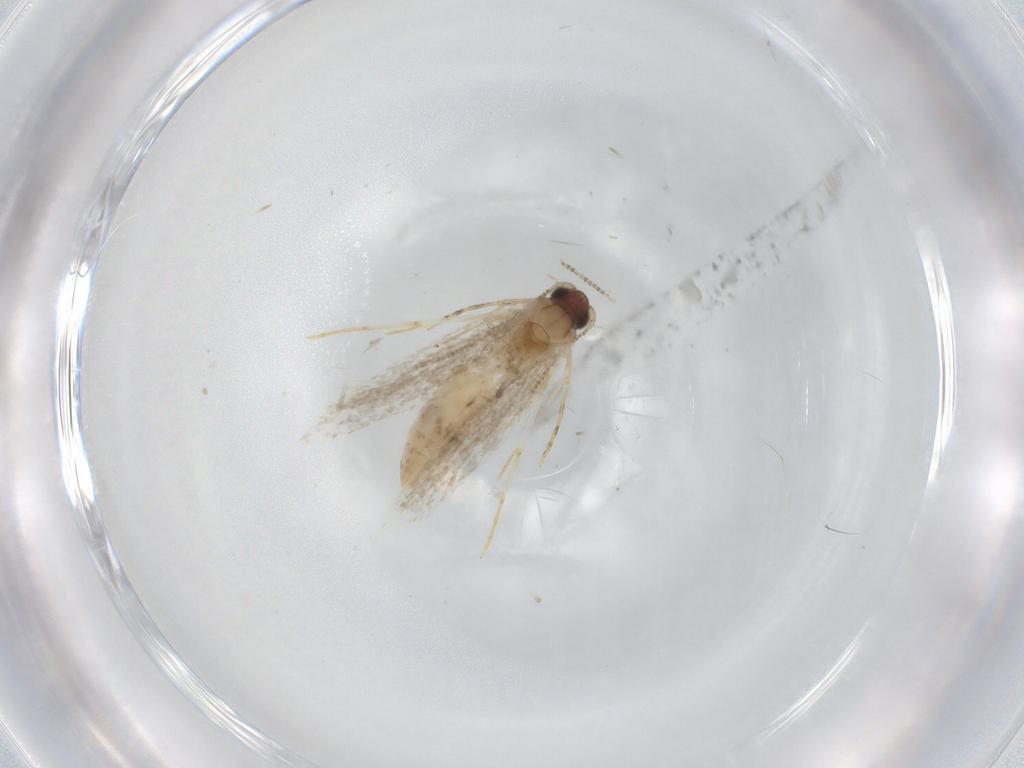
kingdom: Animalia
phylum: Arthropoda
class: Insecta
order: Lepidoptera
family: Tineidae
